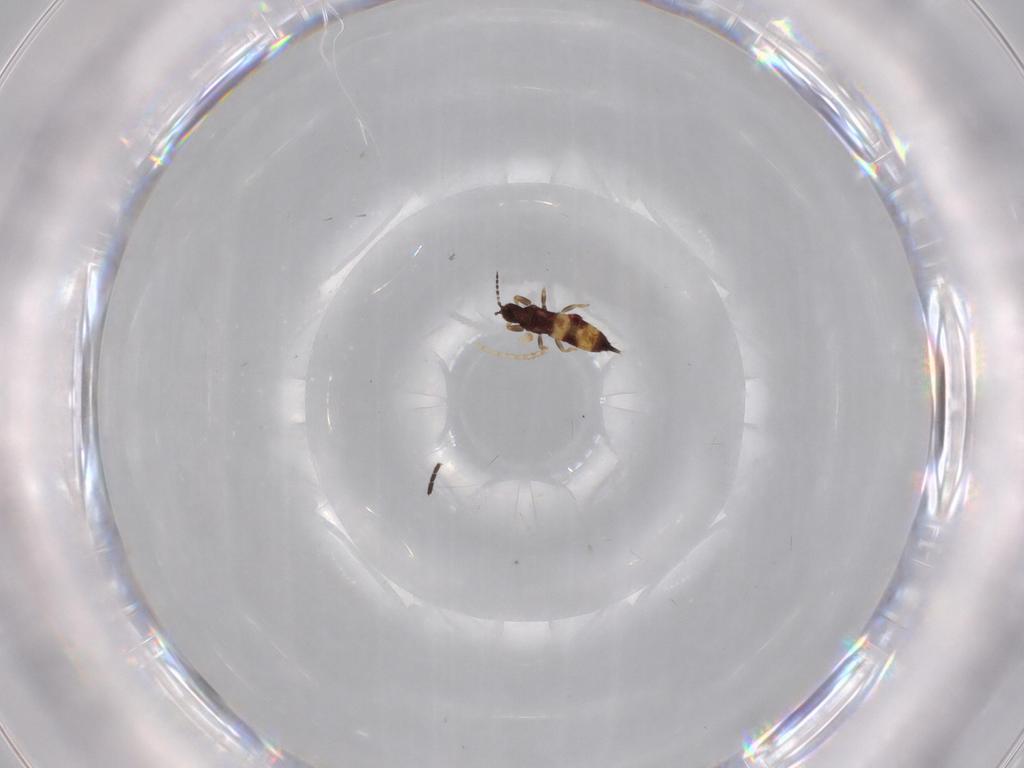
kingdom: Animalia
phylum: Arthropoda
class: Insecta
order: Thysanoptera
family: Phlaeothripidae
